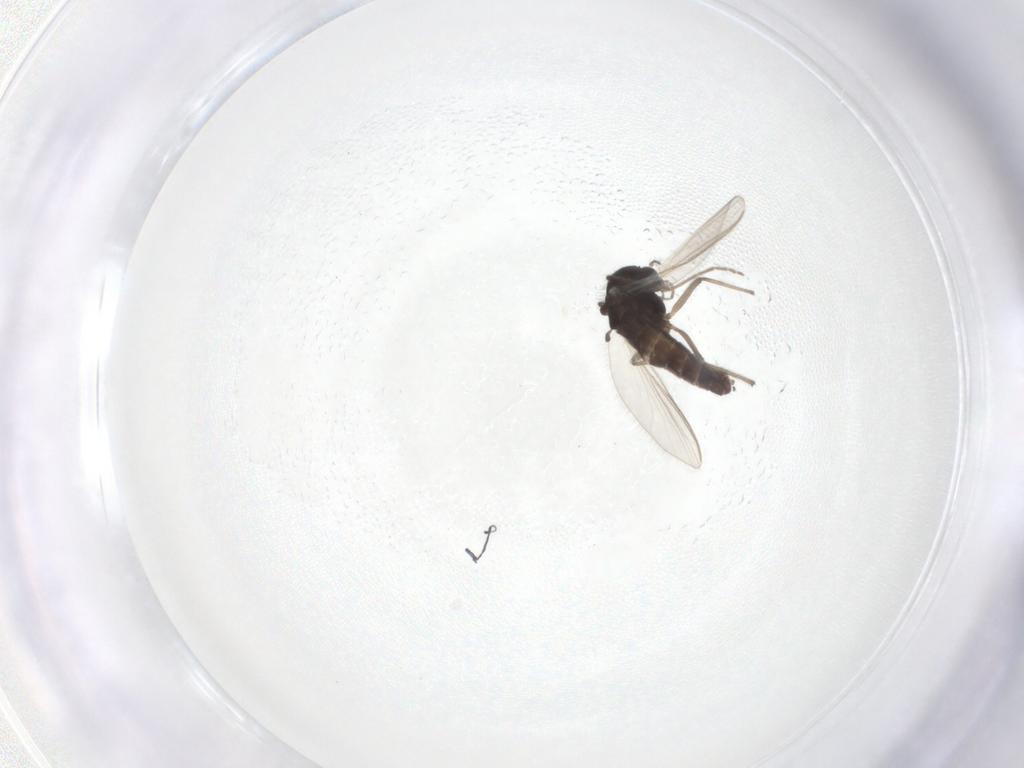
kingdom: Animalia
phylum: Arthropoda
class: Insecta
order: Diptera
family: Chironomidae
